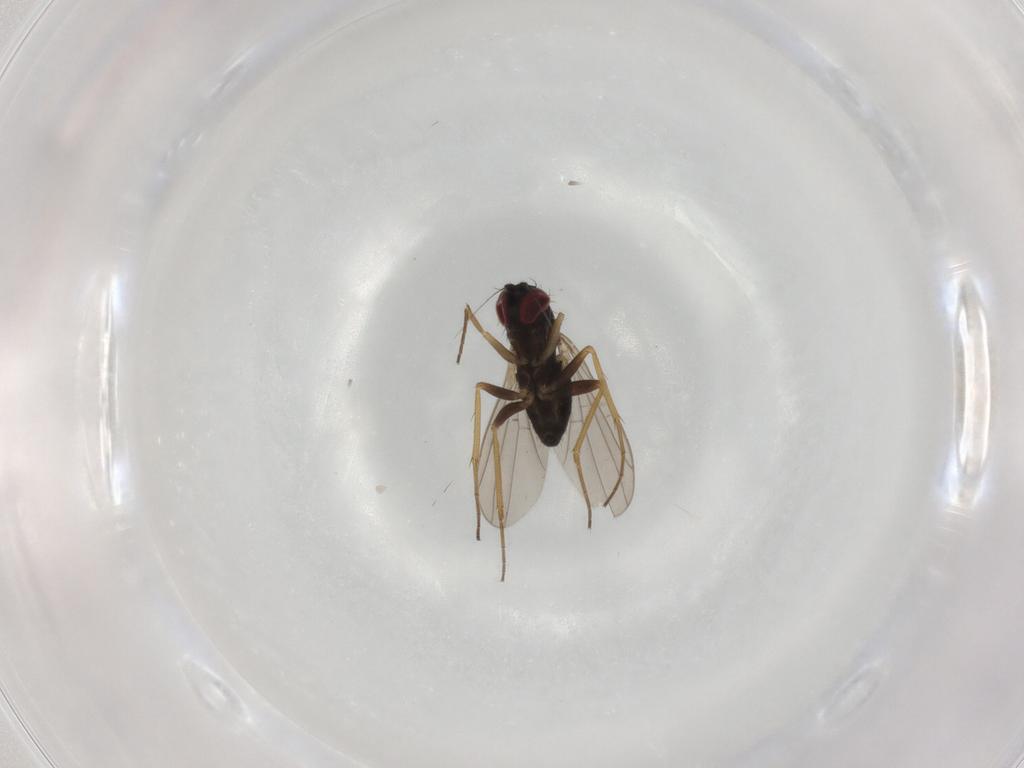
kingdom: Animalia
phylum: Arthropoda
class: Insecta
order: Diptera
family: Dolichopodidae
